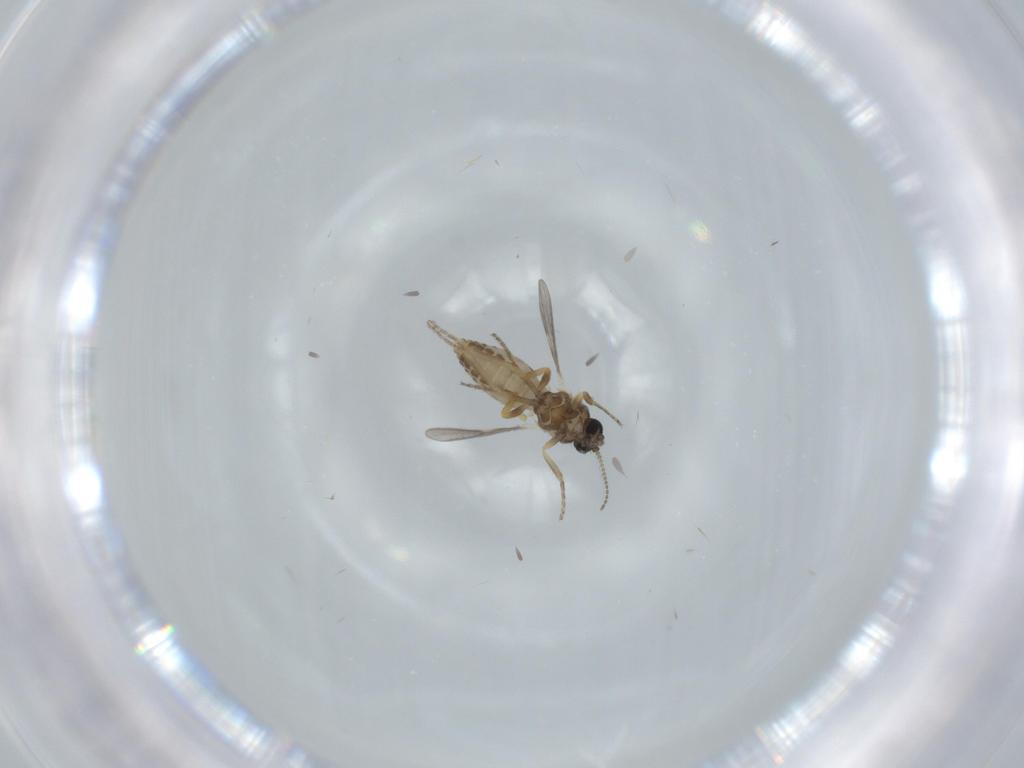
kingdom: Animalia
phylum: Arthropoda
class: Insecta
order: Diptera
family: Ceratopogonidae
